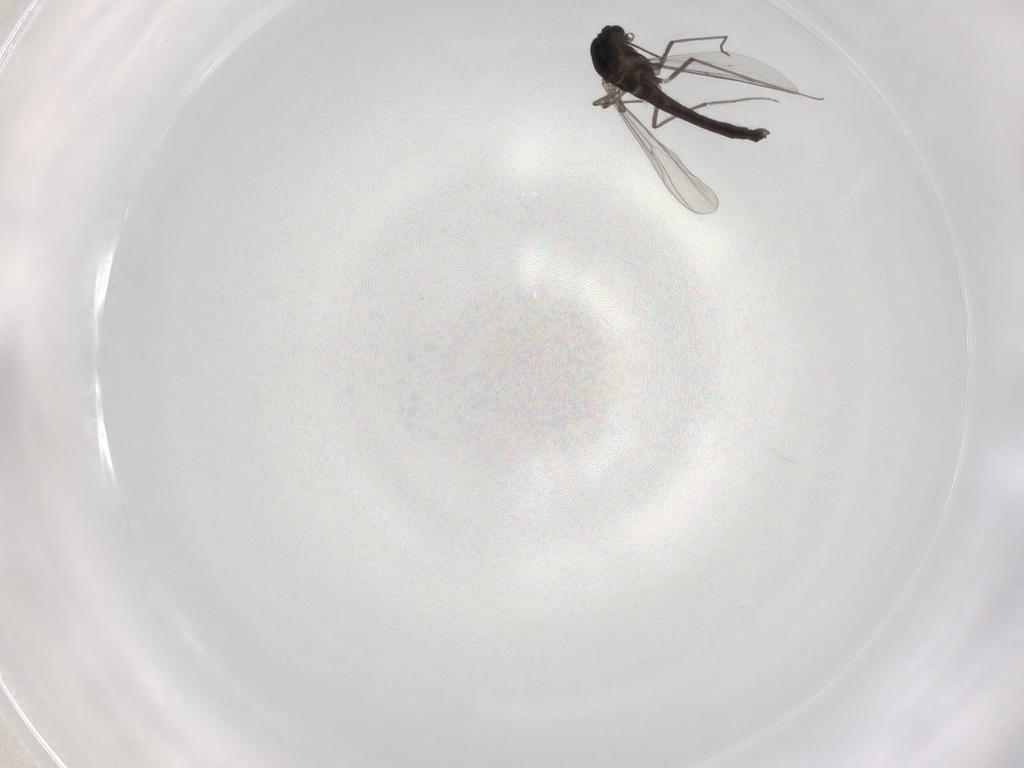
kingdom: Animalia
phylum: Arthropoda
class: Insecta
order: Diptera
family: Chironomidae
